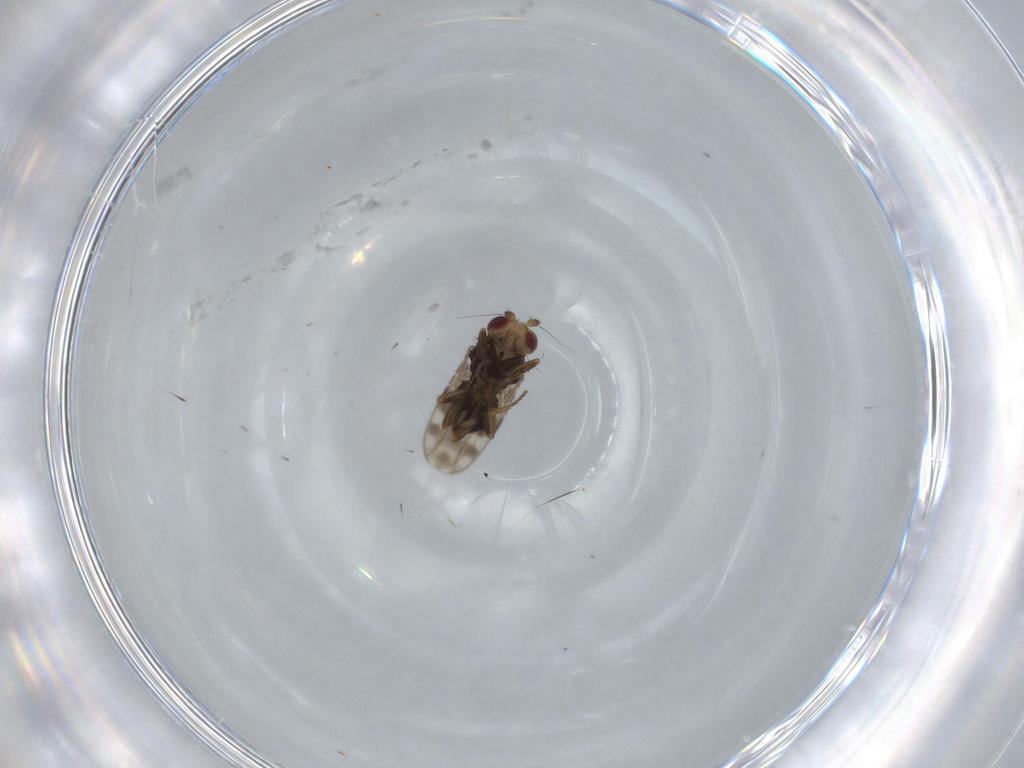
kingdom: Animalia
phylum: Arthropoda
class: Insecta
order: Diptera
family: Sphaeroceridae
